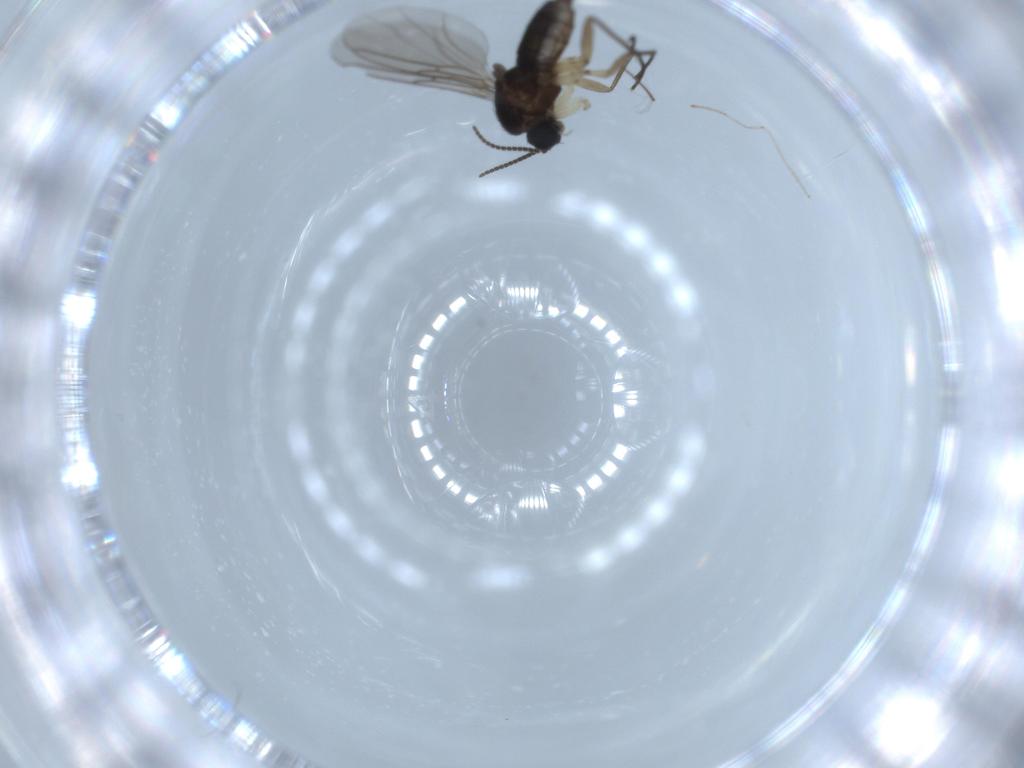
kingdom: Animalia
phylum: Arthropoda
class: Insecta
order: Diptera
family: Sciaridae
